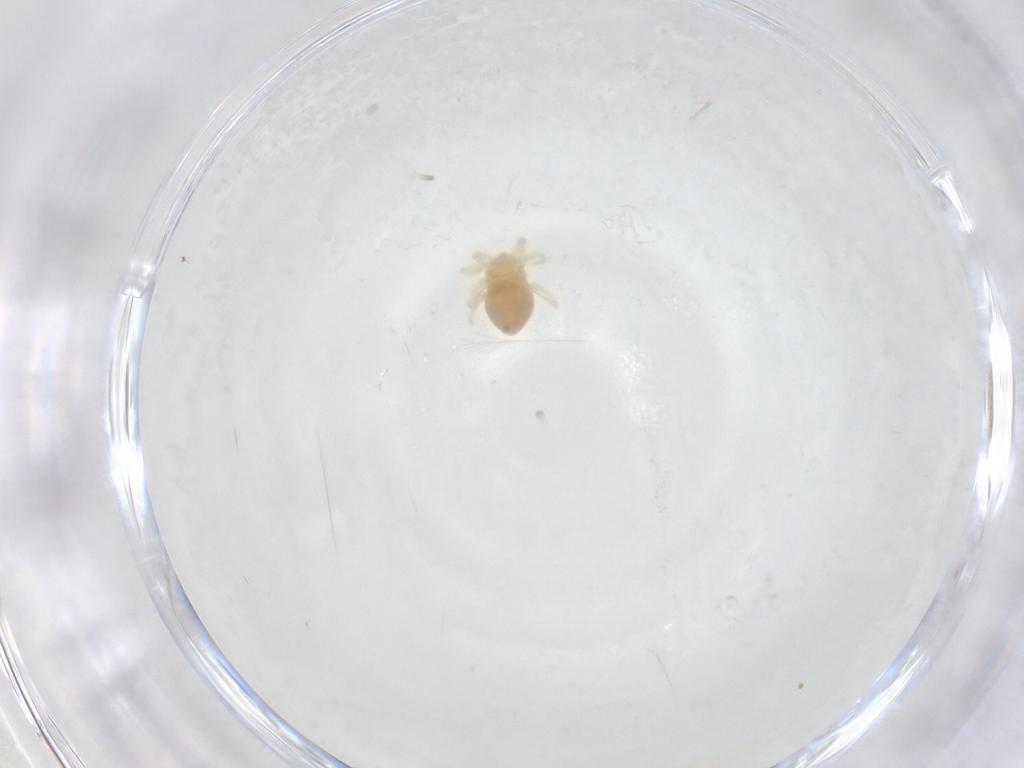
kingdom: Animalia
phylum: Arthropoda
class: Arachnida
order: Trombidiformes
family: Anystidae
